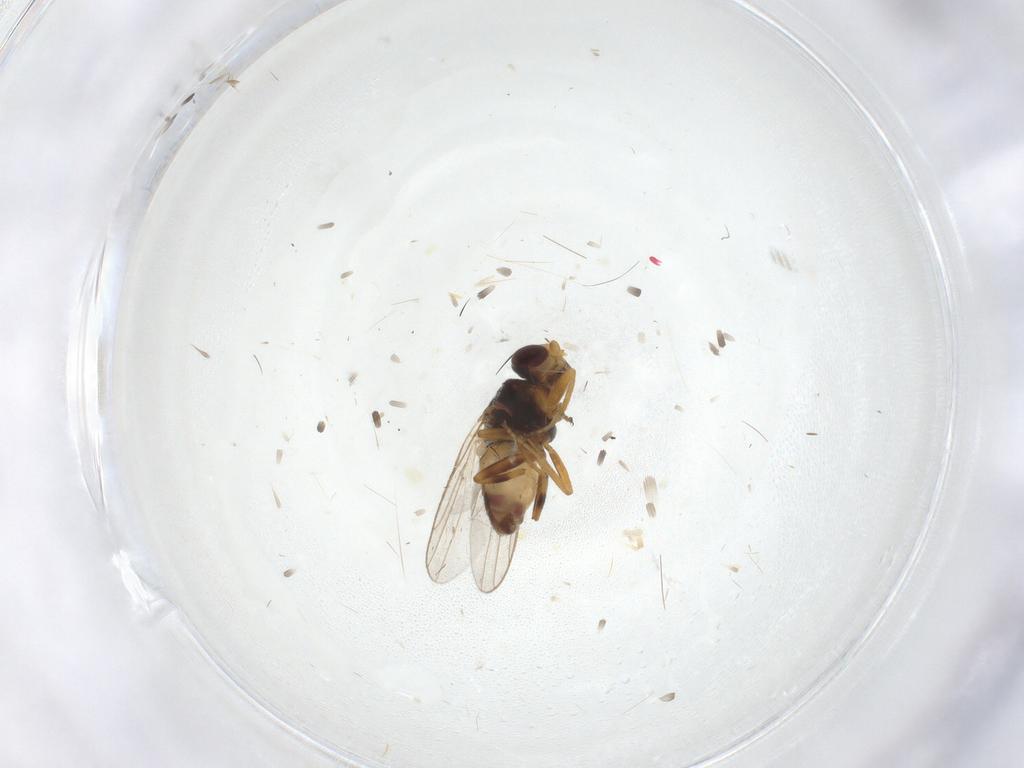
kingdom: Animalia
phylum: Arthropoda
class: Insecta
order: Diptera
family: Chloropidae
